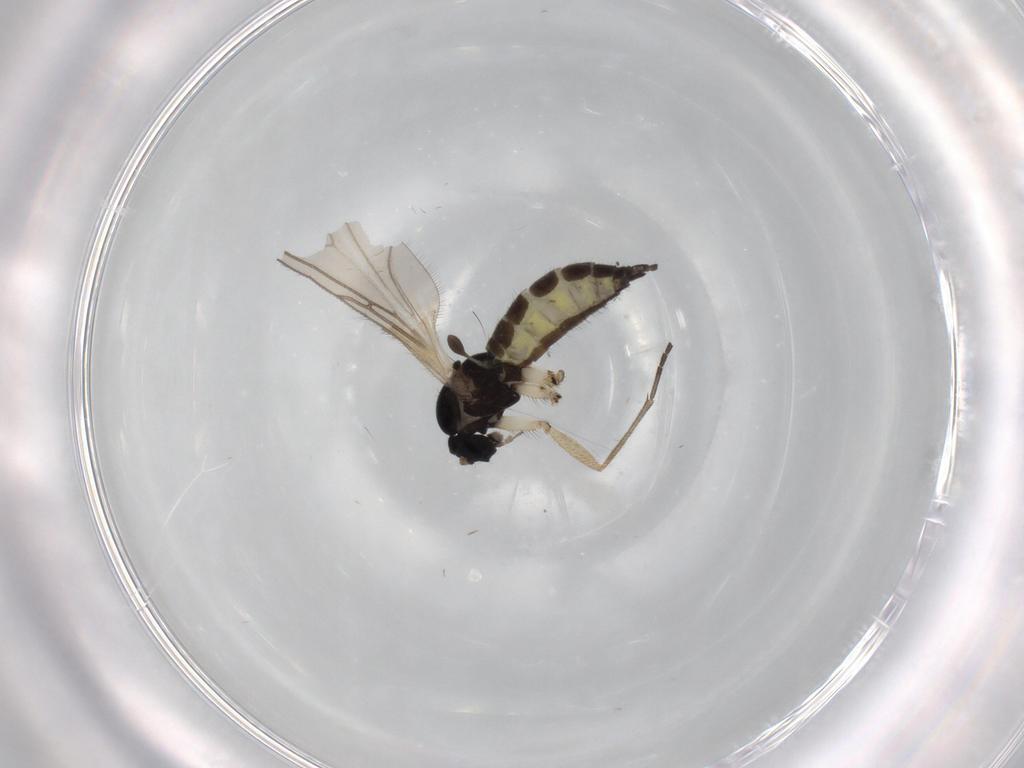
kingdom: Animalia
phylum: Arthropoda
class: Insecta
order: Diptera
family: Sciaridae
